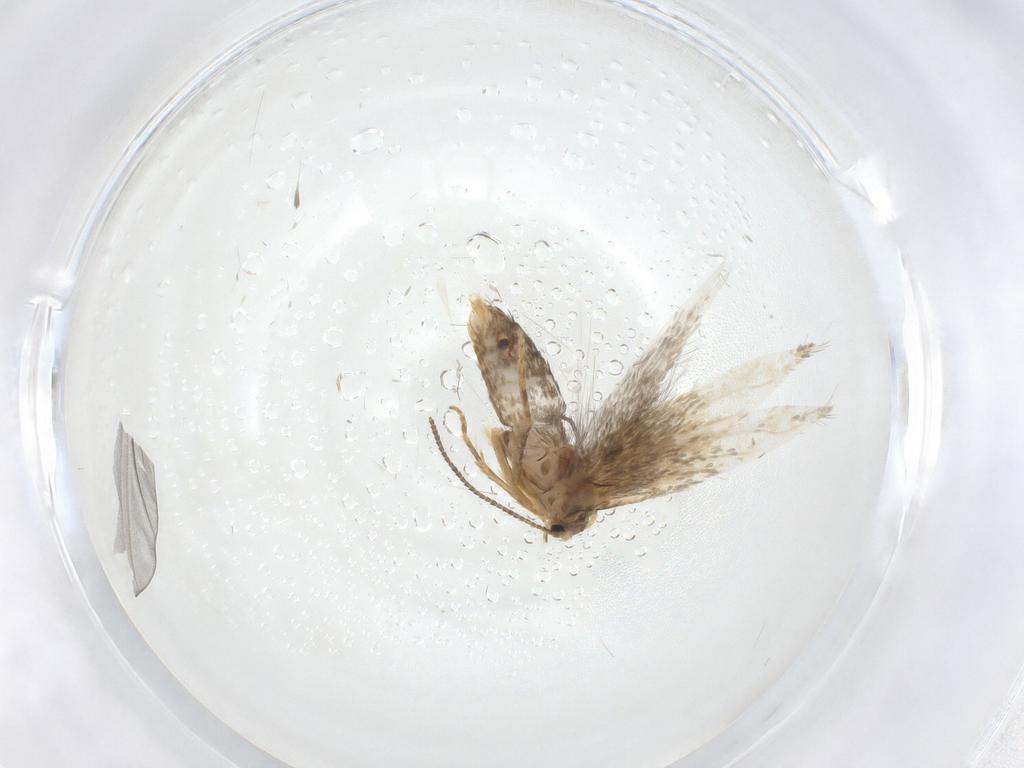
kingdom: Animalia
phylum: Arthropoda
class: Insecta
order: Lepidoptera
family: Nepticulidae
